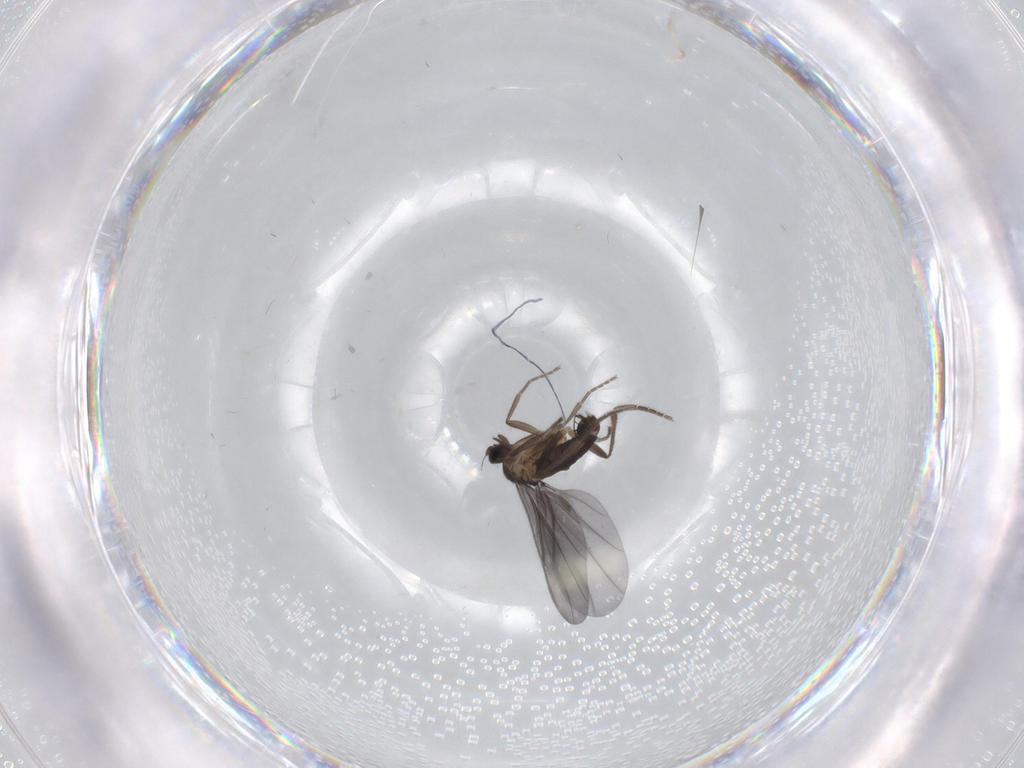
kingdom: Animalia
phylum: Arthropoda
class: Insecta
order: Diptera
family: Phoridae
